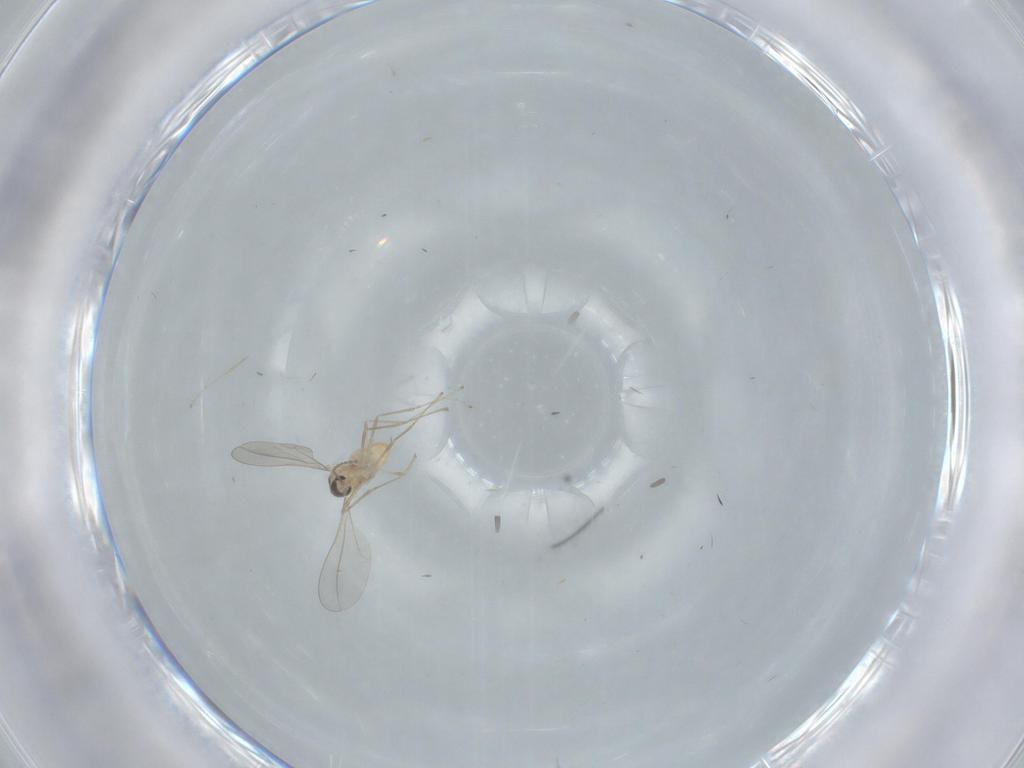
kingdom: Animalia
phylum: Arthropoda
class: Insecta
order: Diptera
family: Cecidomyiidae
